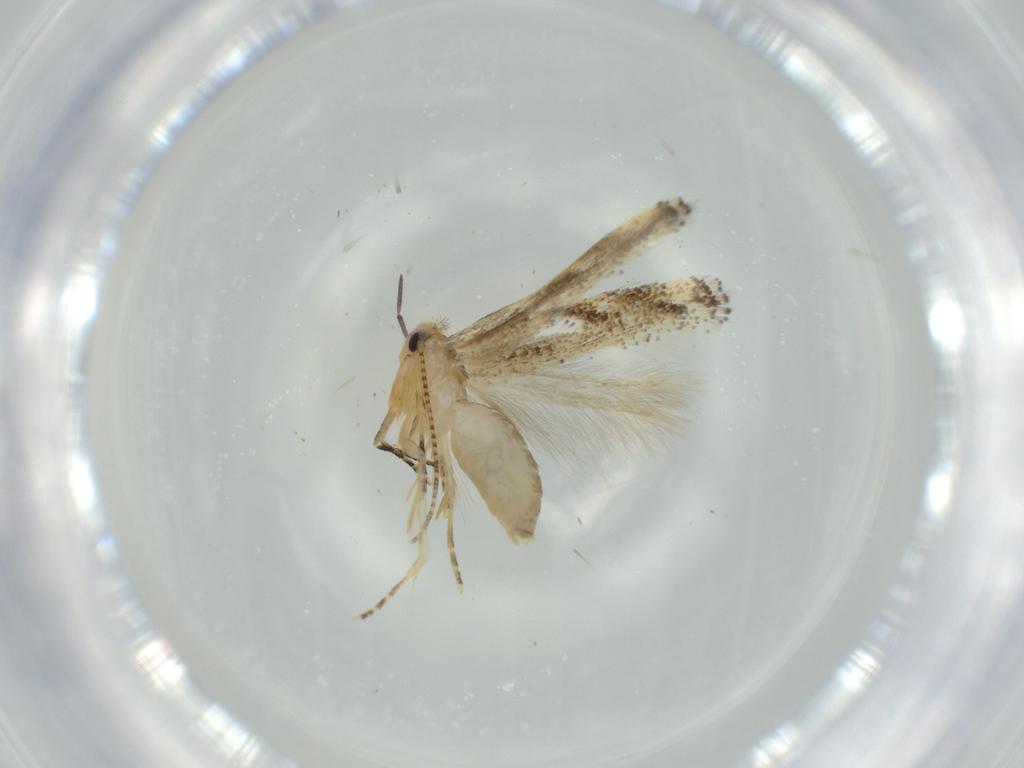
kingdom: Animalia
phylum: Arthropoda
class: Insecta
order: Lepidoptera
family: Bucculatricidae
